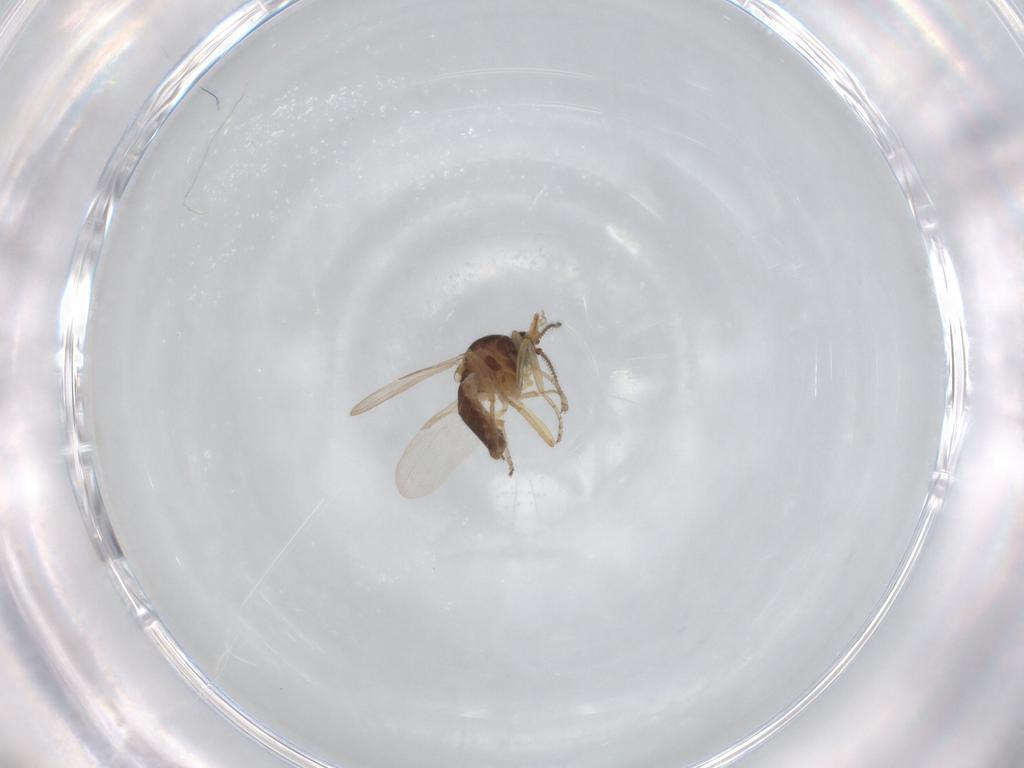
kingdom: Animalia
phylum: Arthropoda
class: Insecta
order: Diptera
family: Ceratopogonidae
